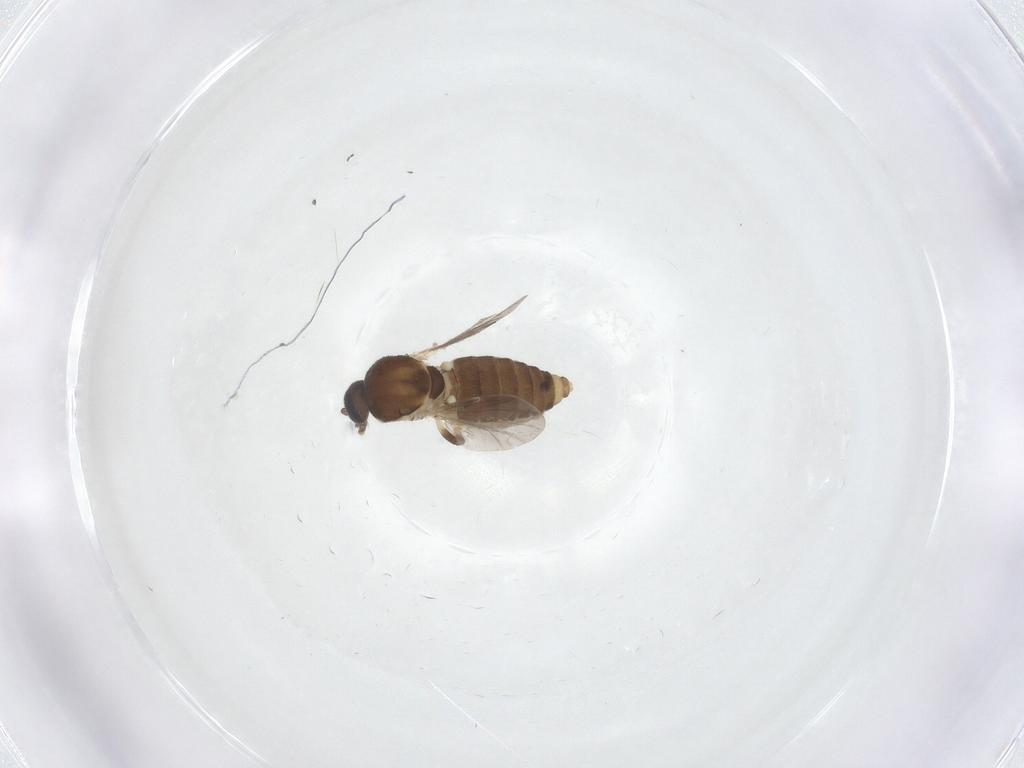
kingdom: Animalia
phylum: Arthropoda
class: Insecta
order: Diptera
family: Ceratopogonidae
